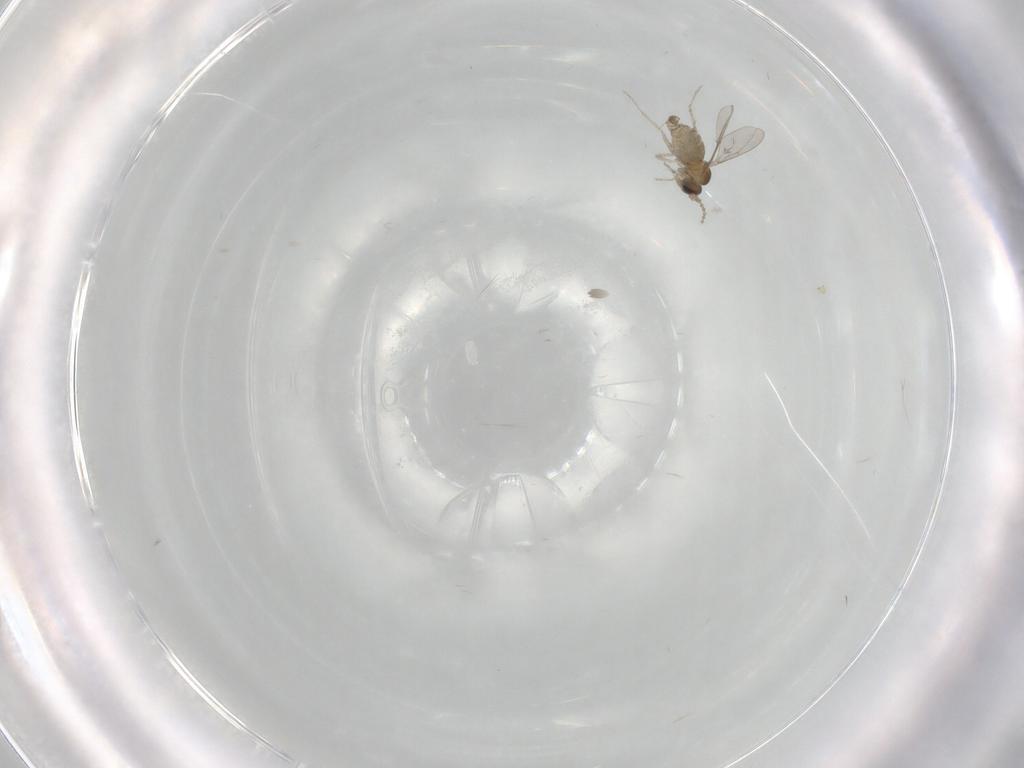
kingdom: Animalia
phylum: Arthropoda
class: Insecta
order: Diptera
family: Cecidomyiidae
